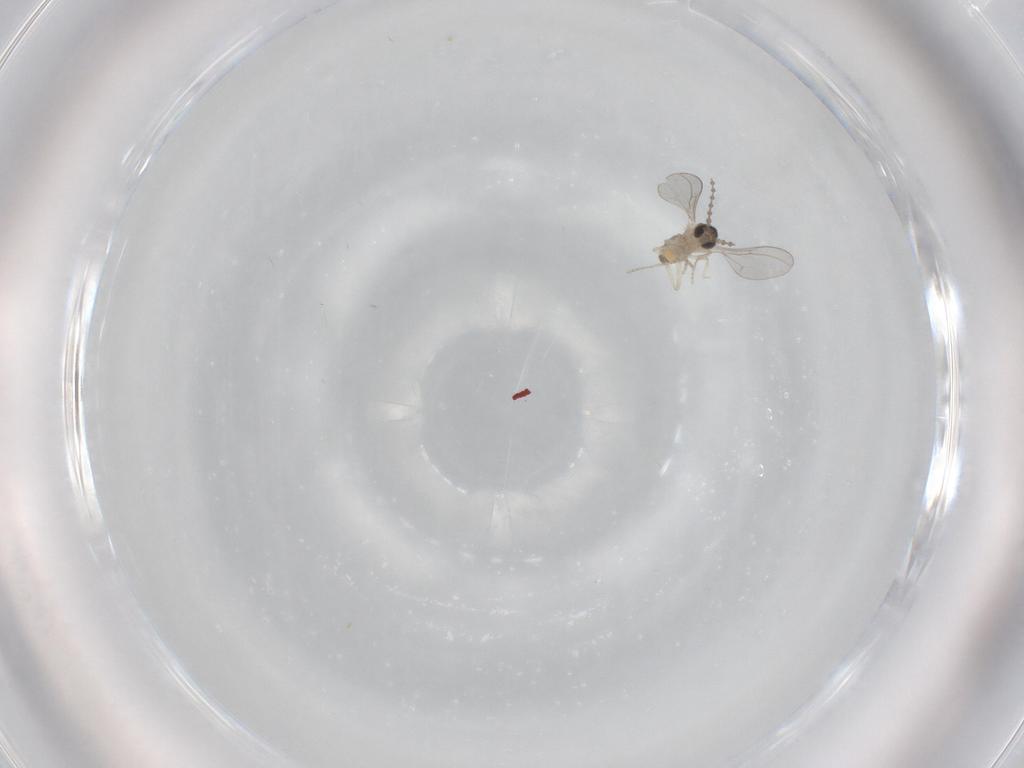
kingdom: Animalia
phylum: Arthropoda
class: Insecta
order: Diptera
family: Cecidomyiidae
